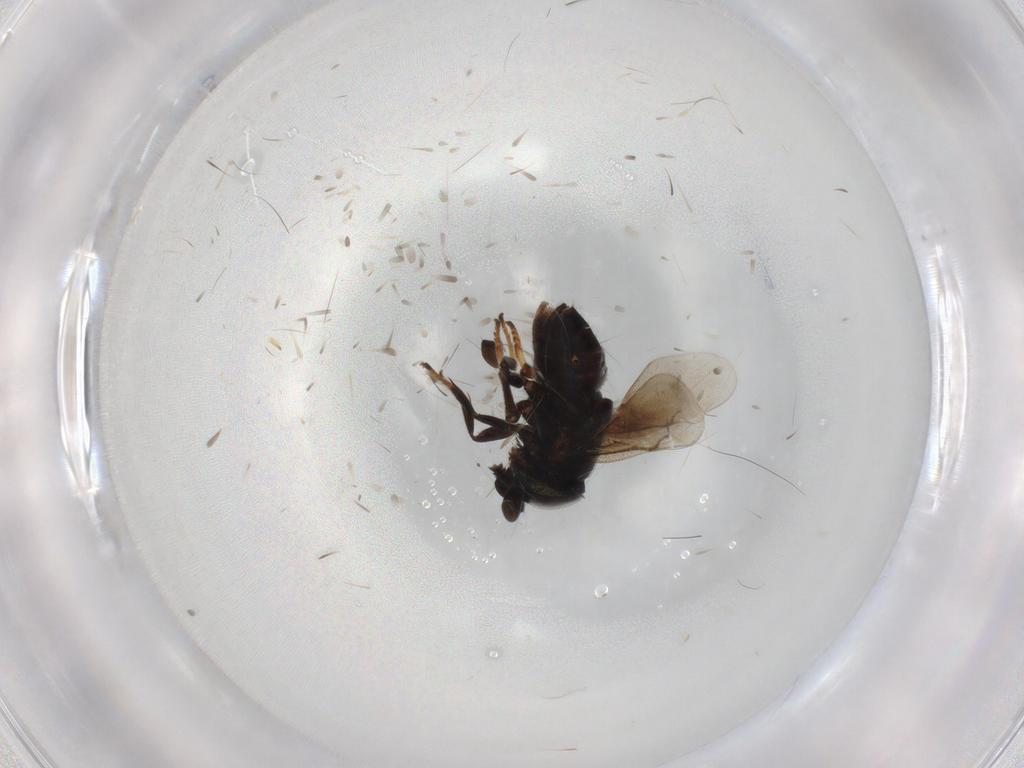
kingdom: Animalia
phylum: Arthropoda
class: Insecta
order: Hymenoptera
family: Encyrtidae
